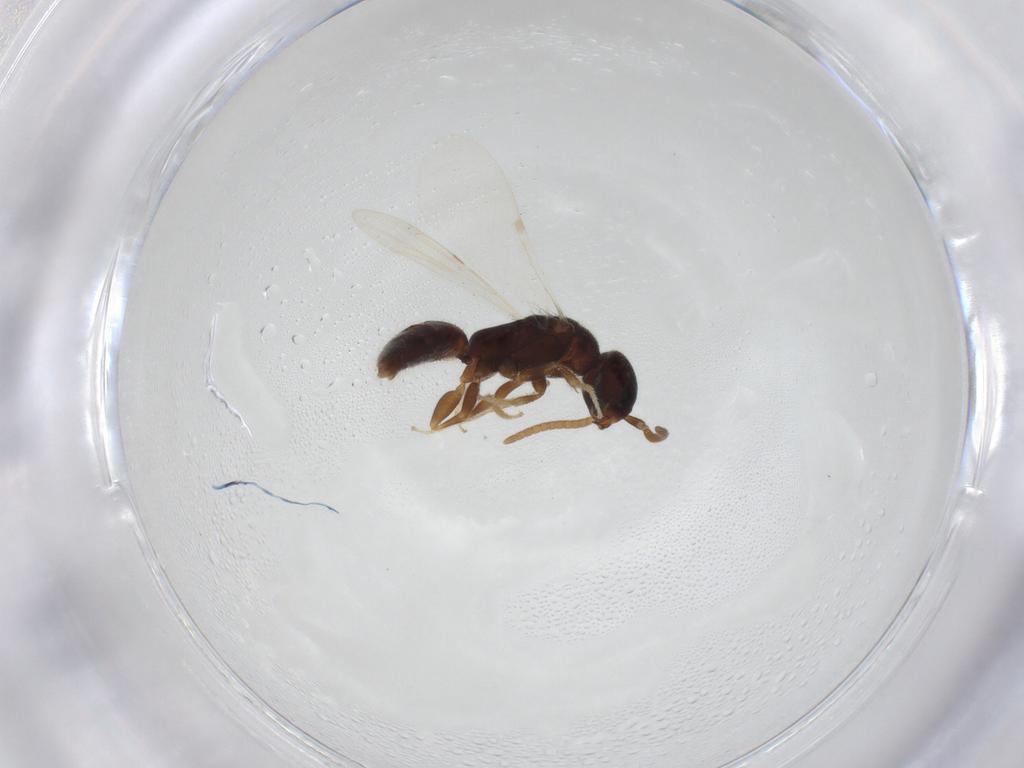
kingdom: Animalia
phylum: Arthropoda
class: Insecta
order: Hymenoptera
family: Bethylidae
